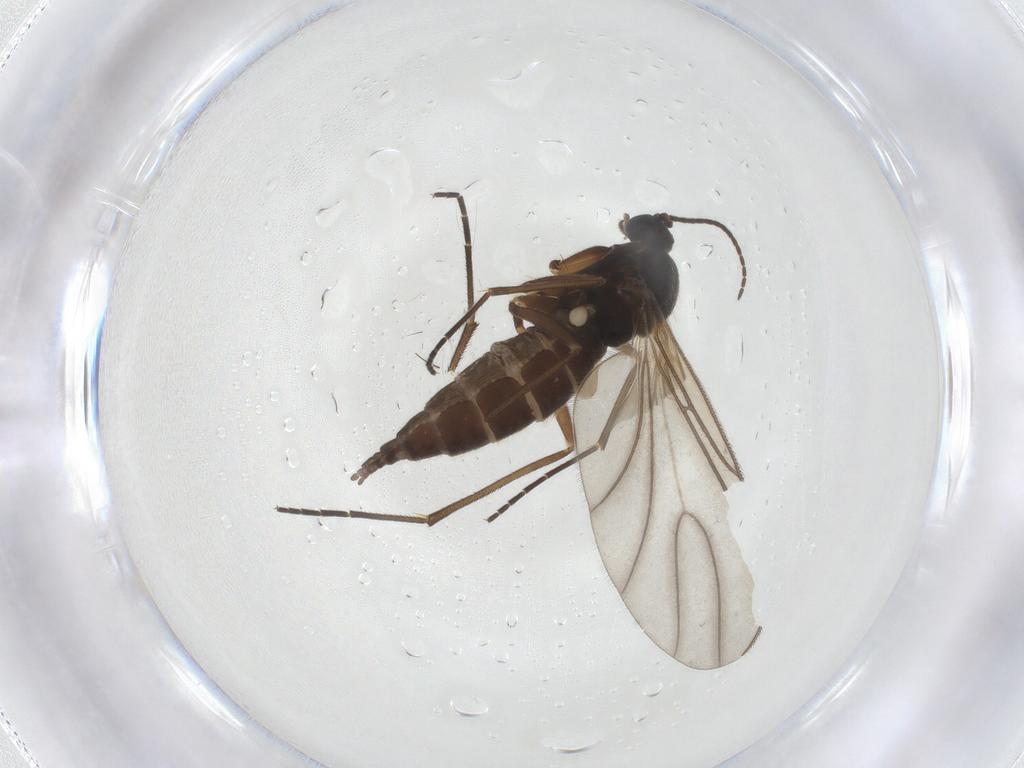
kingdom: Animalia
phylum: Arthropoda
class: Insecta
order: Diptera
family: Sciaridae
